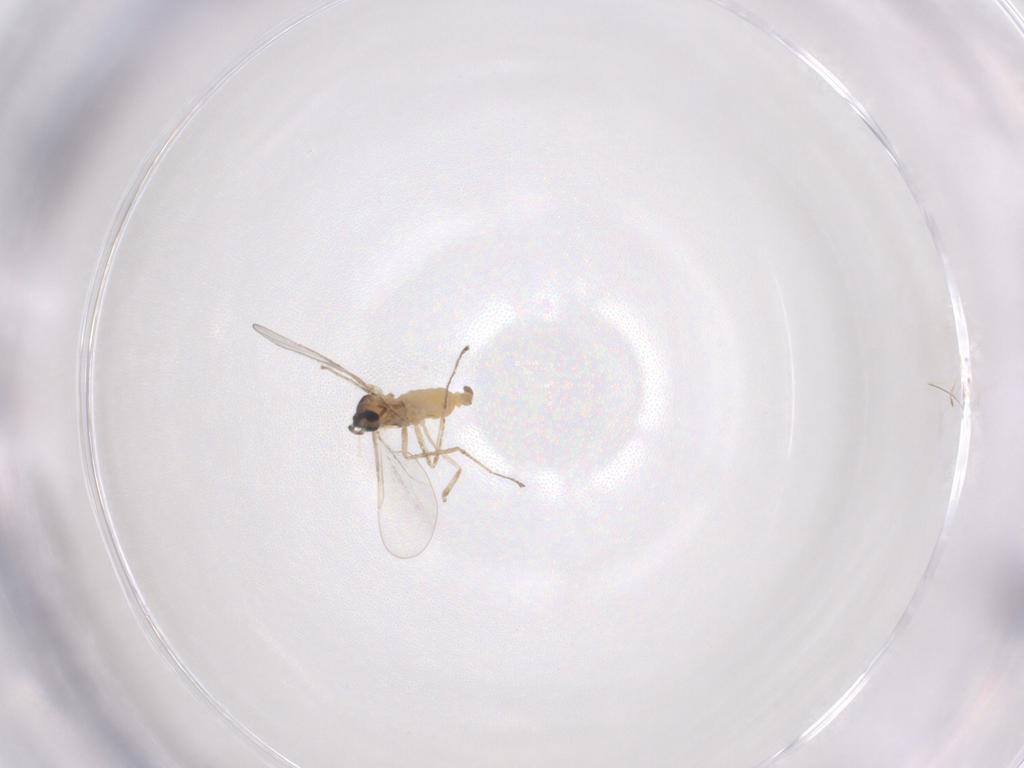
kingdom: Animalia
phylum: Arthropoda
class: Insecta
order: Diptera
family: Cecidomyiidae
